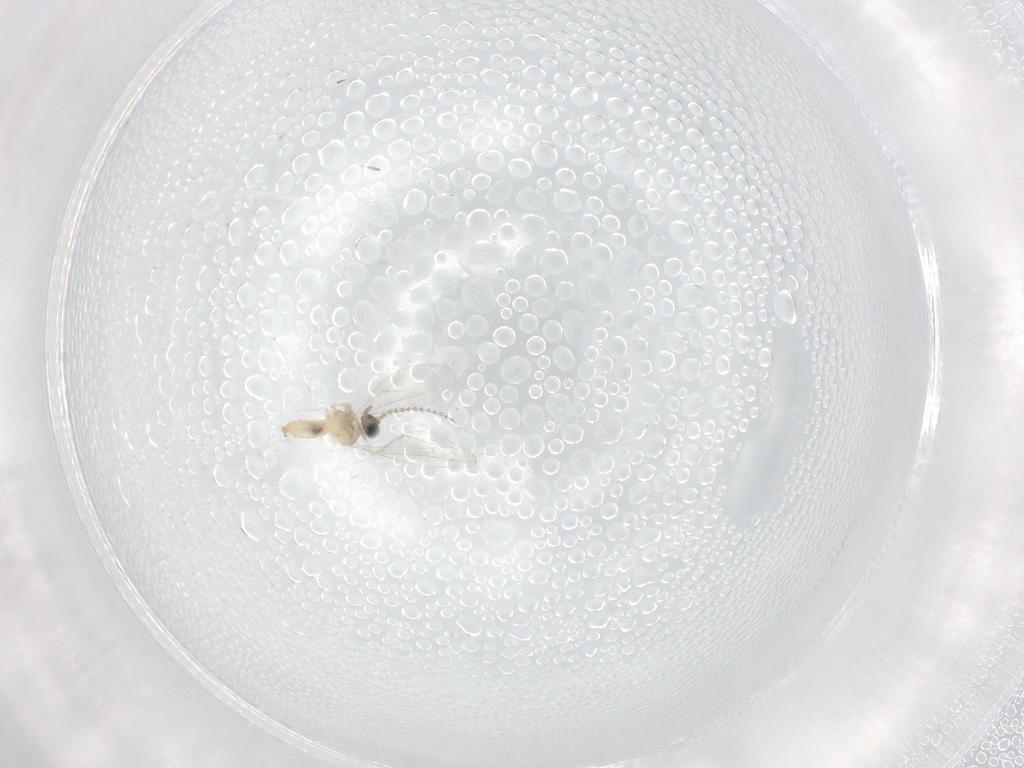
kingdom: Animalia
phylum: Arthropoda
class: Insecta
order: Diptera
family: Cecidomyiidae
